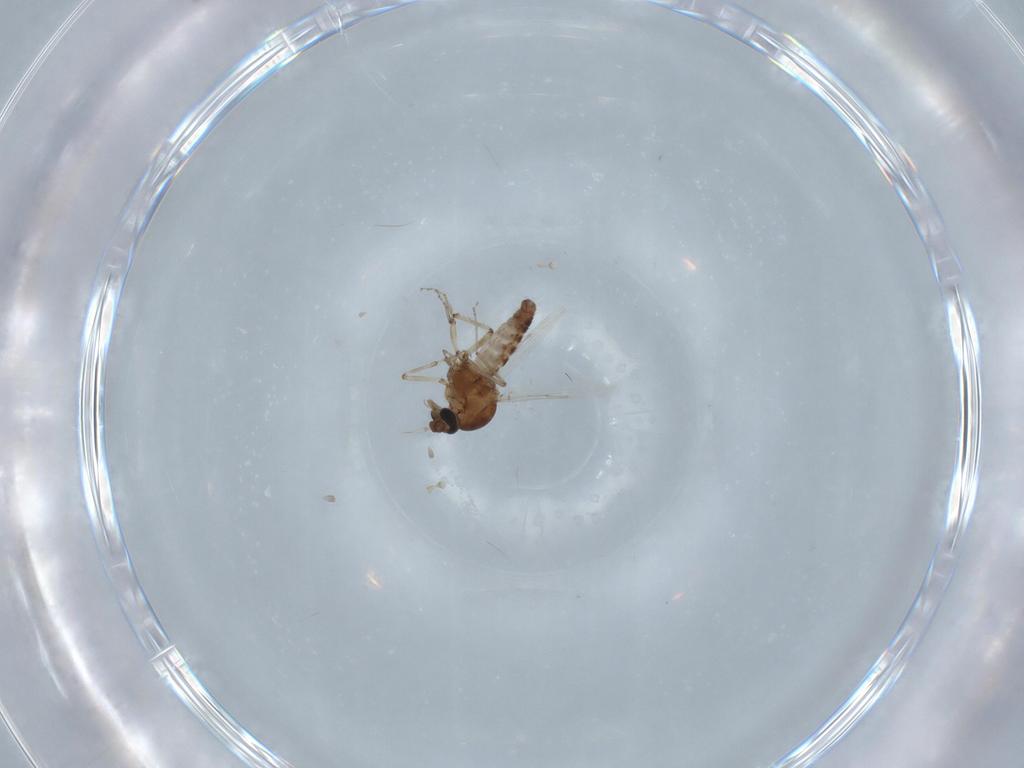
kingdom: Animalia
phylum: Arthropoda
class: Insecta
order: Diptera
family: Ceratopogonidae
